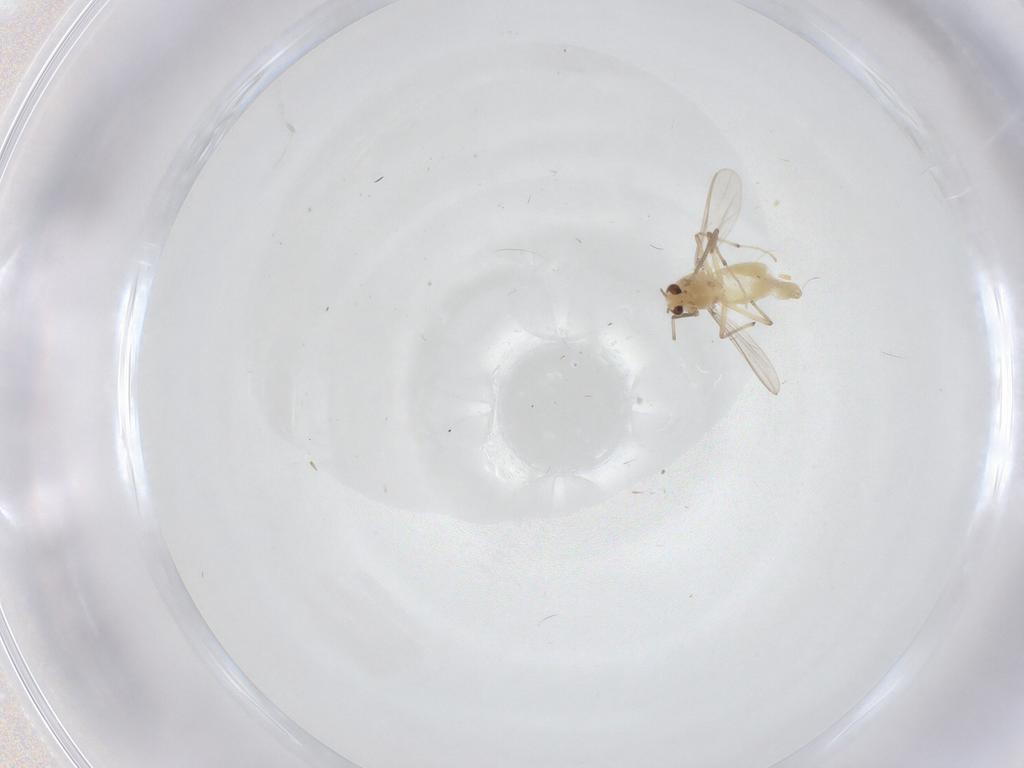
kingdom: Animalia
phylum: Arthropoda
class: Insecta
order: Diptera
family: Chironomidae
